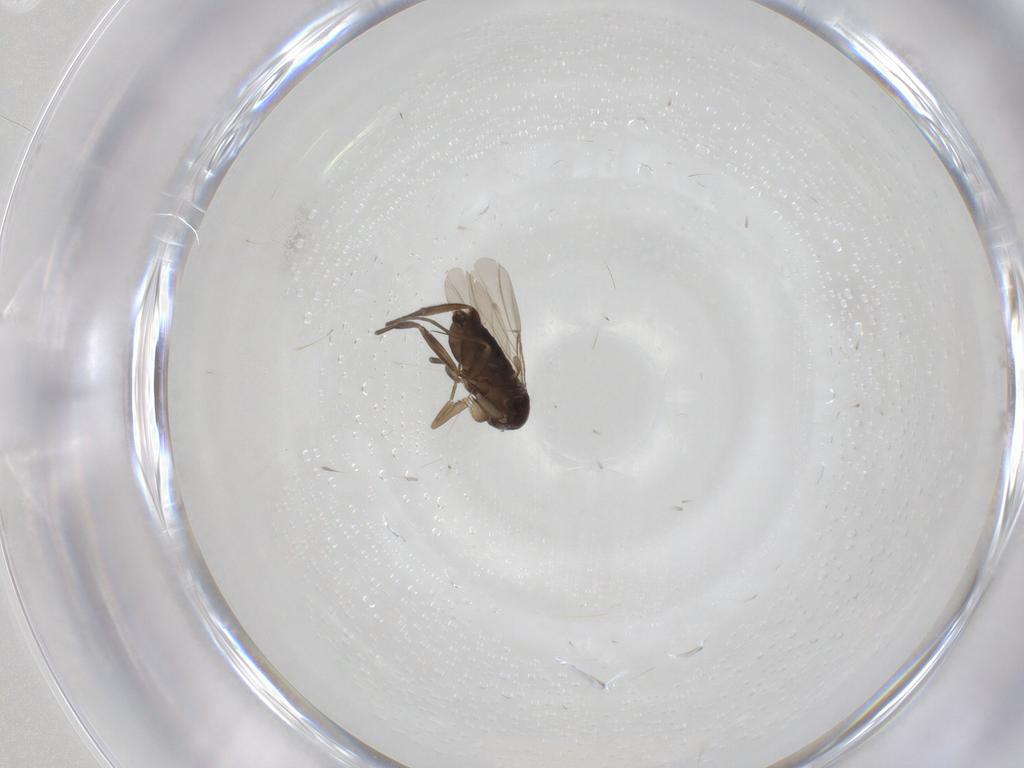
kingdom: Animalia
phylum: Arthropoda
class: Insecta
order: Diptera
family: Phoridae
